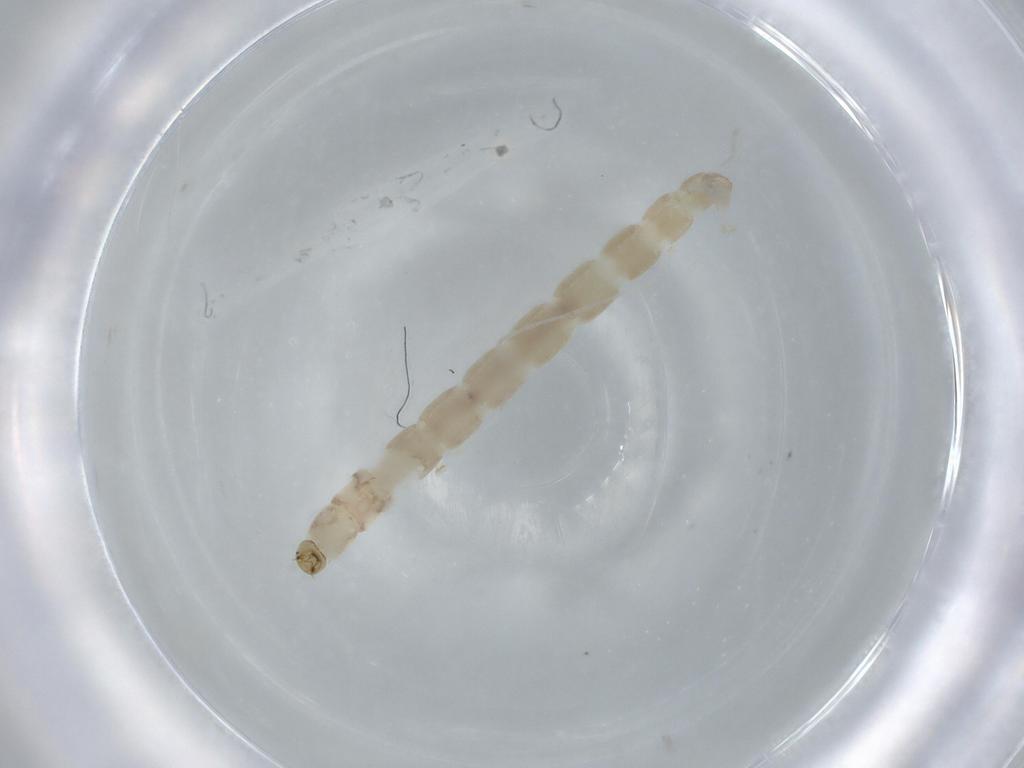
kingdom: Animalia
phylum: Arthropoda
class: Insecta
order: Diptera
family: Chironomidae
